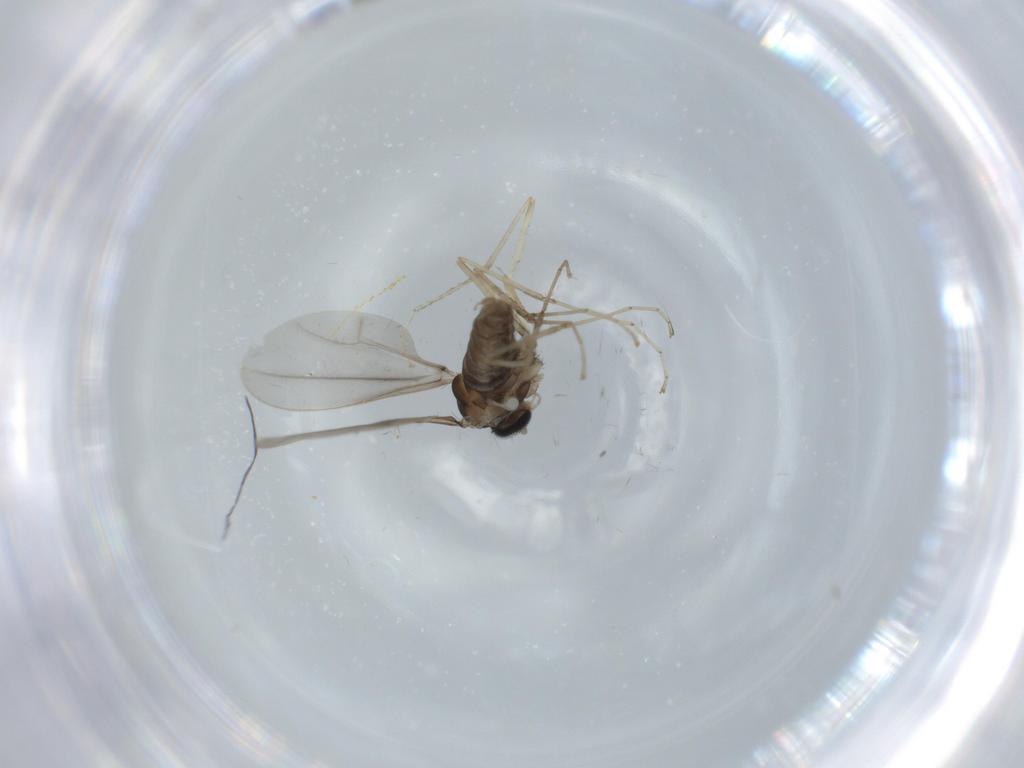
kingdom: Animalia
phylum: Arthropoda
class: Insecta
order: Diptera
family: Cecidomyiidae
